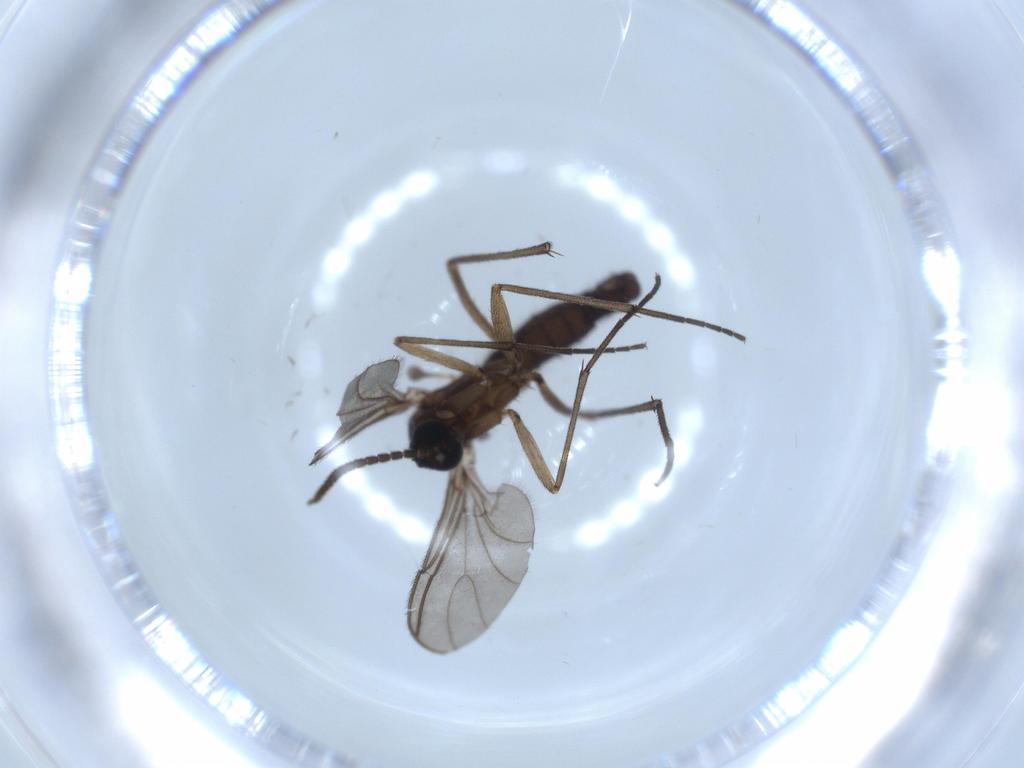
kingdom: Animalia
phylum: Arthropoda
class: Insecta
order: Diptera
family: Sciaridae
